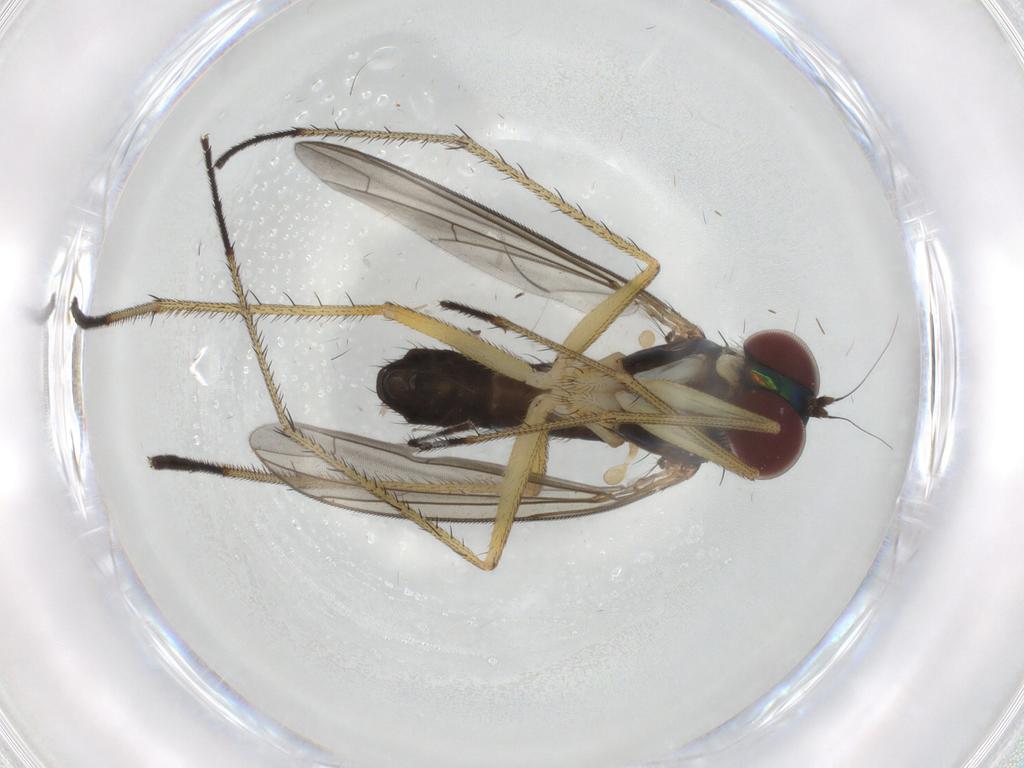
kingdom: Animalia
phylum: Arthropoda
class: Insecta
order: Diptera
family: Dolichopodidae
